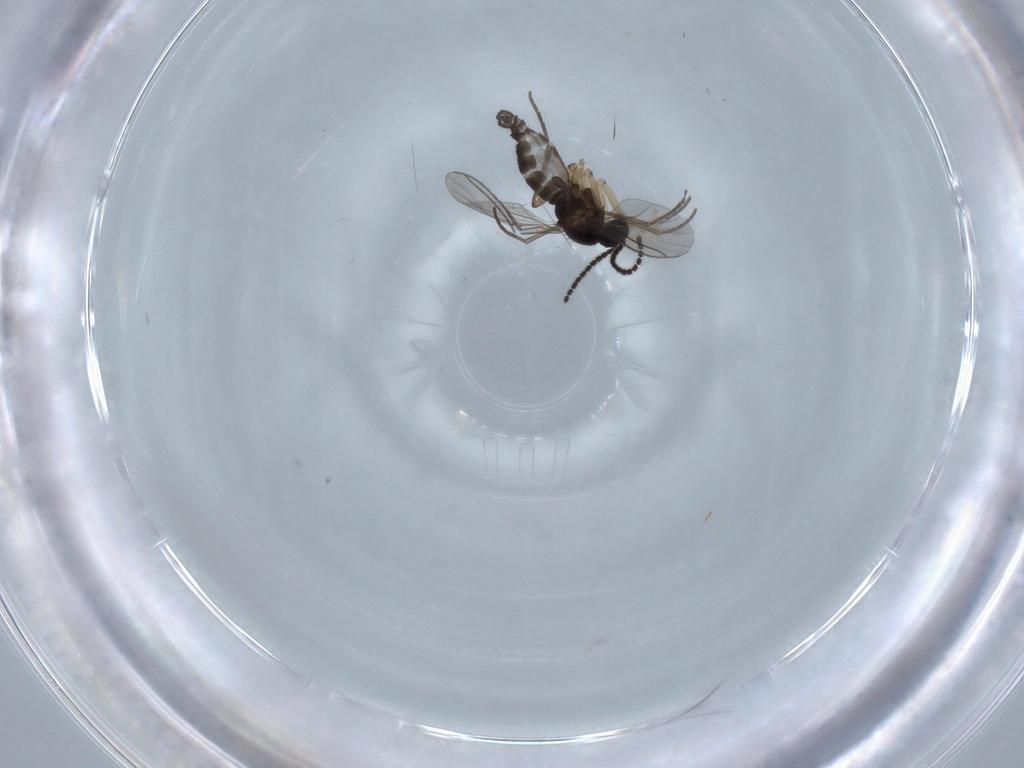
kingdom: Animalia
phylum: Arthropoda
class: Insecta
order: Diptera
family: Sciaridae
